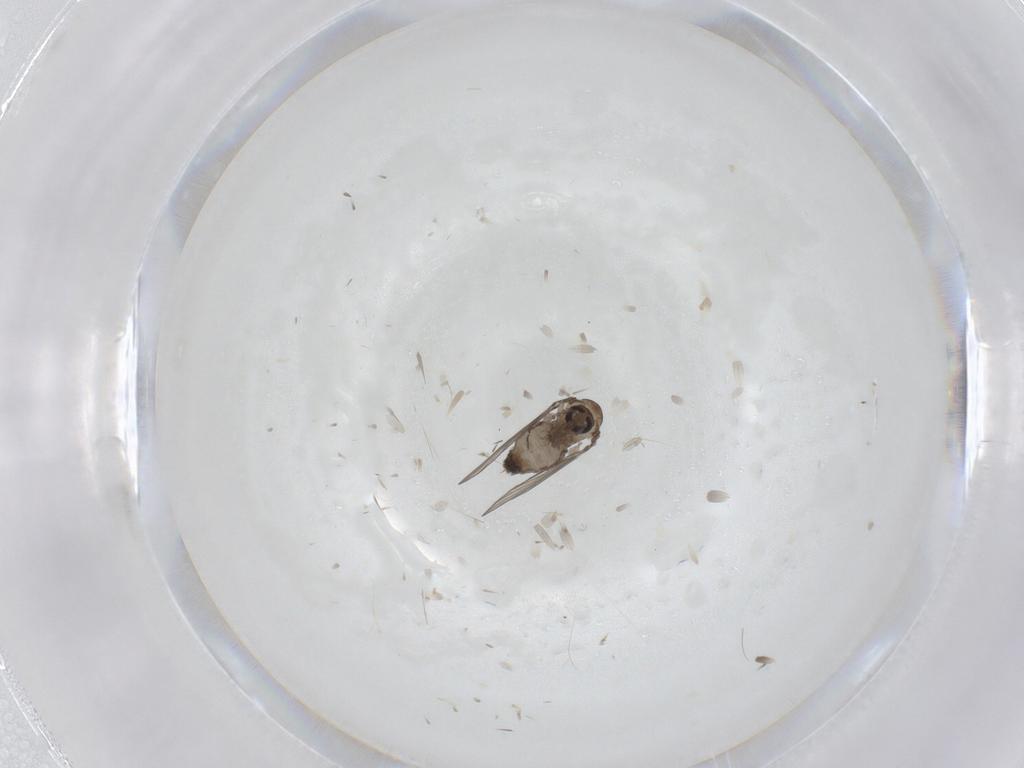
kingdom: Animalia
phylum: Arthropoda
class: Insecta
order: Diptera
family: Psychodidae
